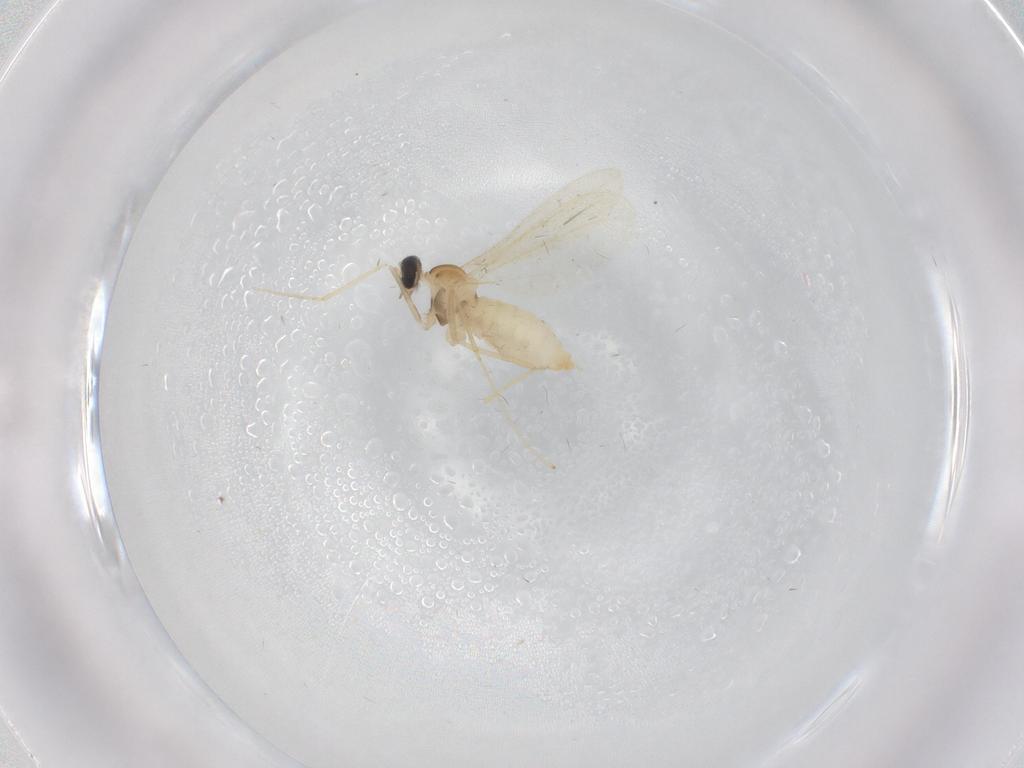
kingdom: Animalia
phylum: Arthropoda
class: Insecta
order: Diptera
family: Cecidomyiidae
